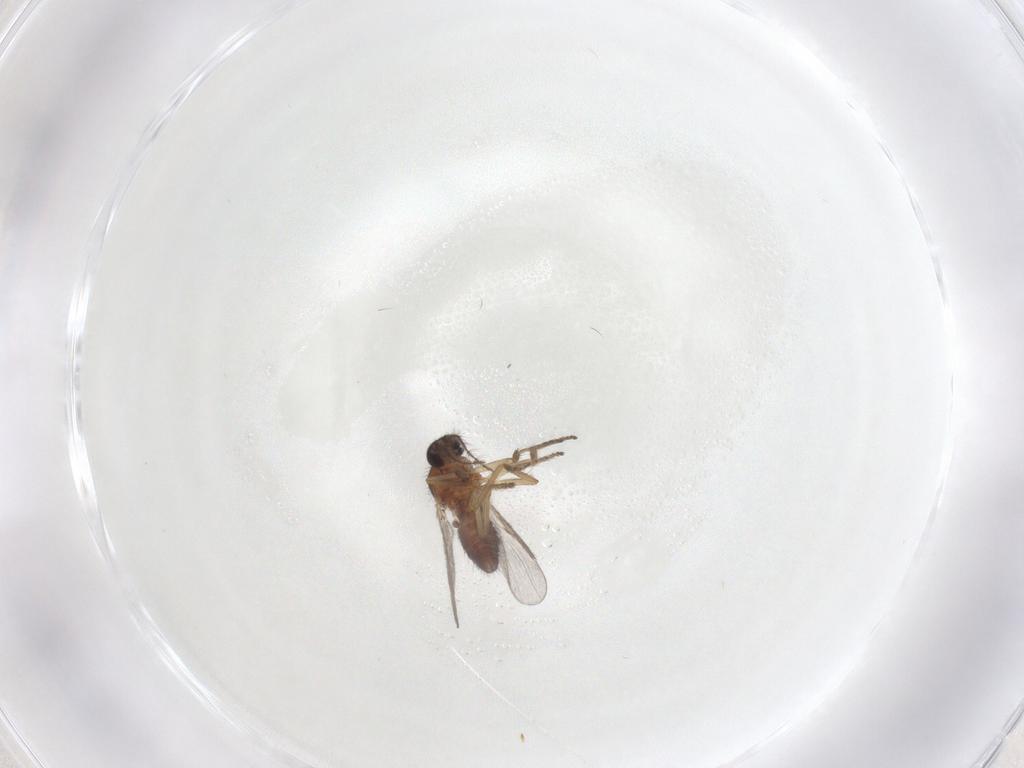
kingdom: Animalia
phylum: Arthropoda
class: Insecta
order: Diptera
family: Ceratopogonidae
